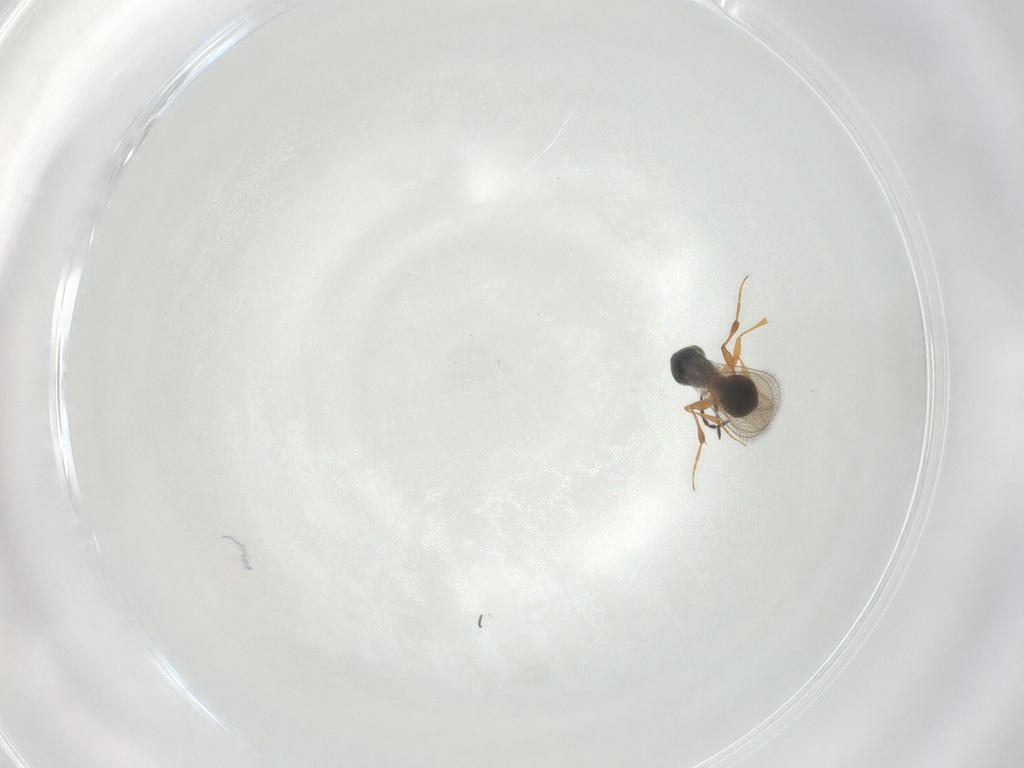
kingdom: Animalia
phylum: Arthropoda
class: Insecta
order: Hymenoptera
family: Platygastridae
